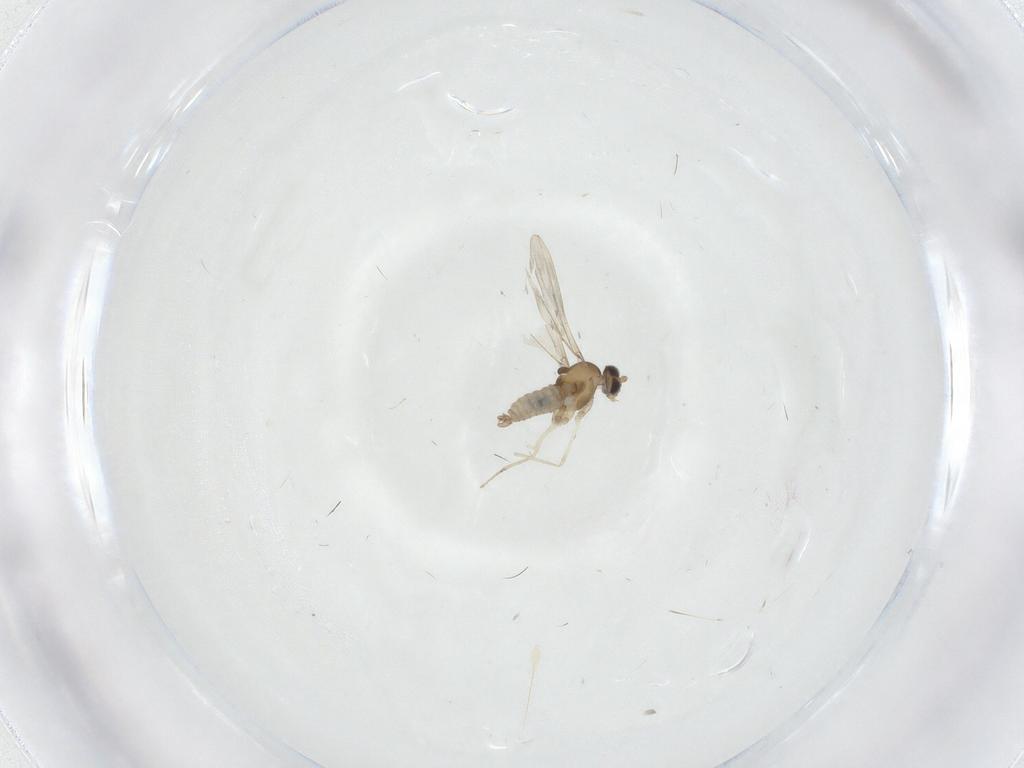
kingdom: Animalia
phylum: Arthropoda
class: Insecta
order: Diptera
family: Cecidomyiidae
